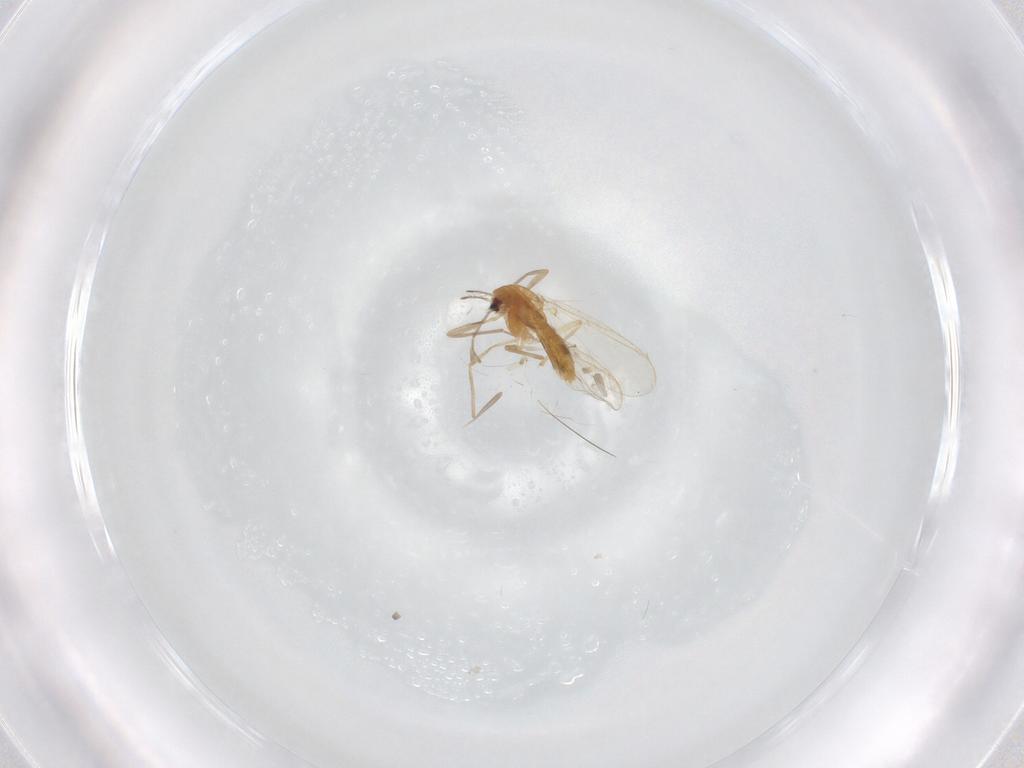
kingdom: Animalia
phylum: Arthropoda
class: Insecta
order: Diptera
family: Chironomidae
